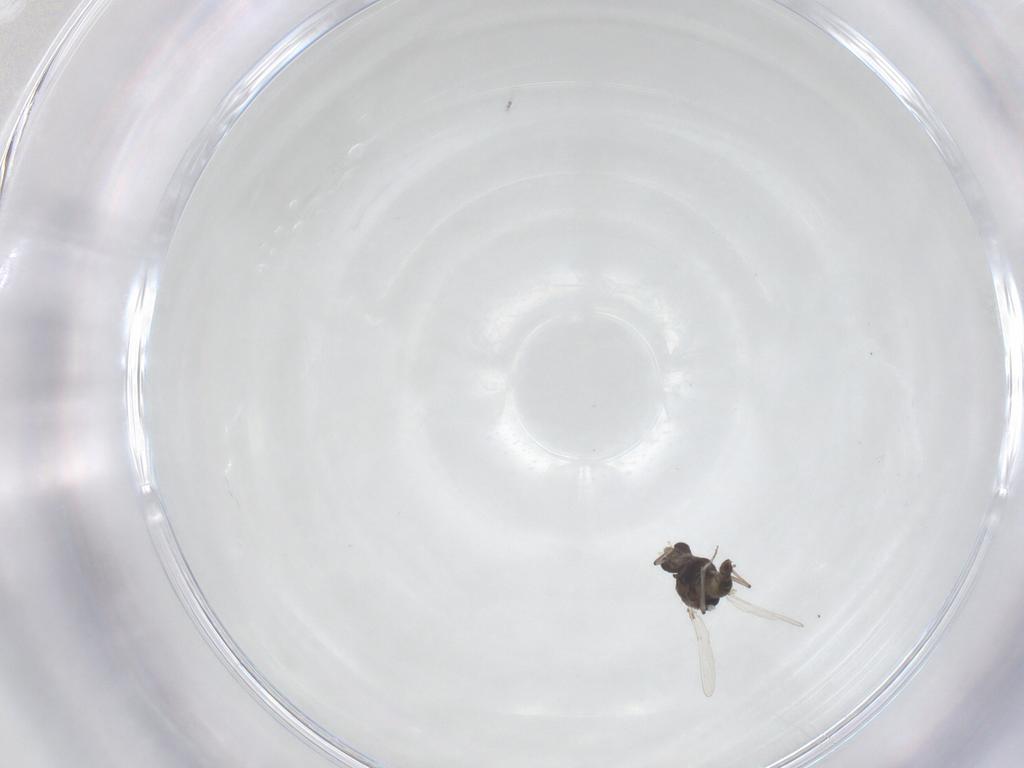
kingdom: Animalia
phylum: Arthropoda
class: Insecta
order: Diptera
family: Chironomidae
